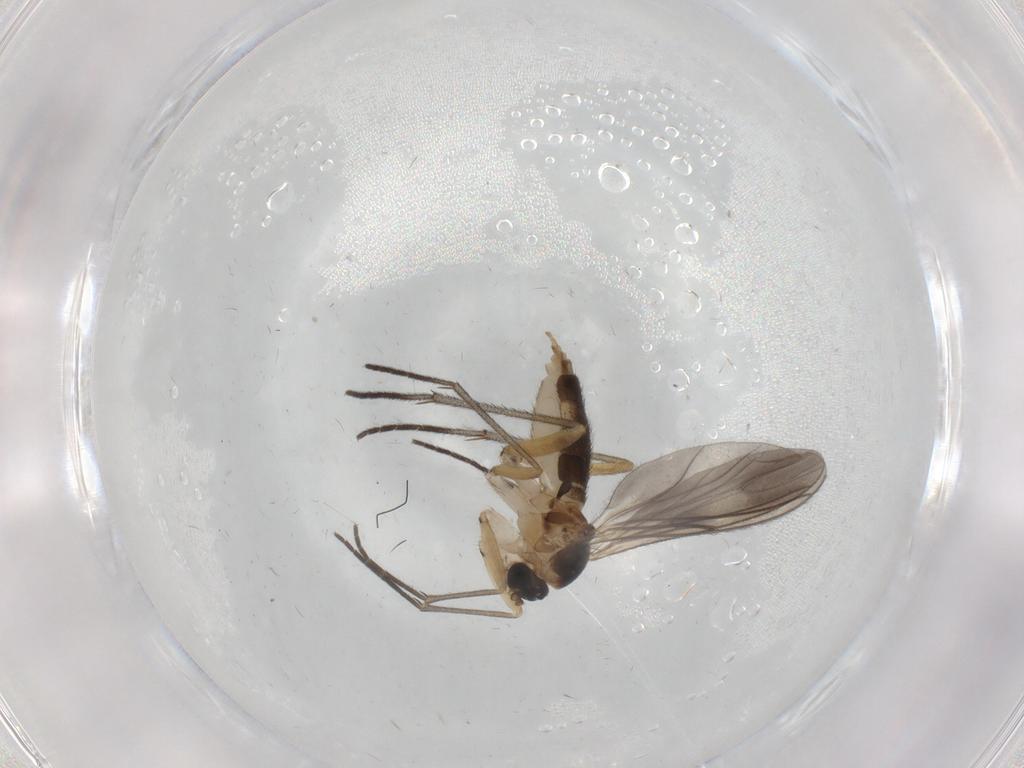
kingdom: Animalia
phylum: Arthropoda
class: Insecta
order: Diptera
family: Sciaridae
